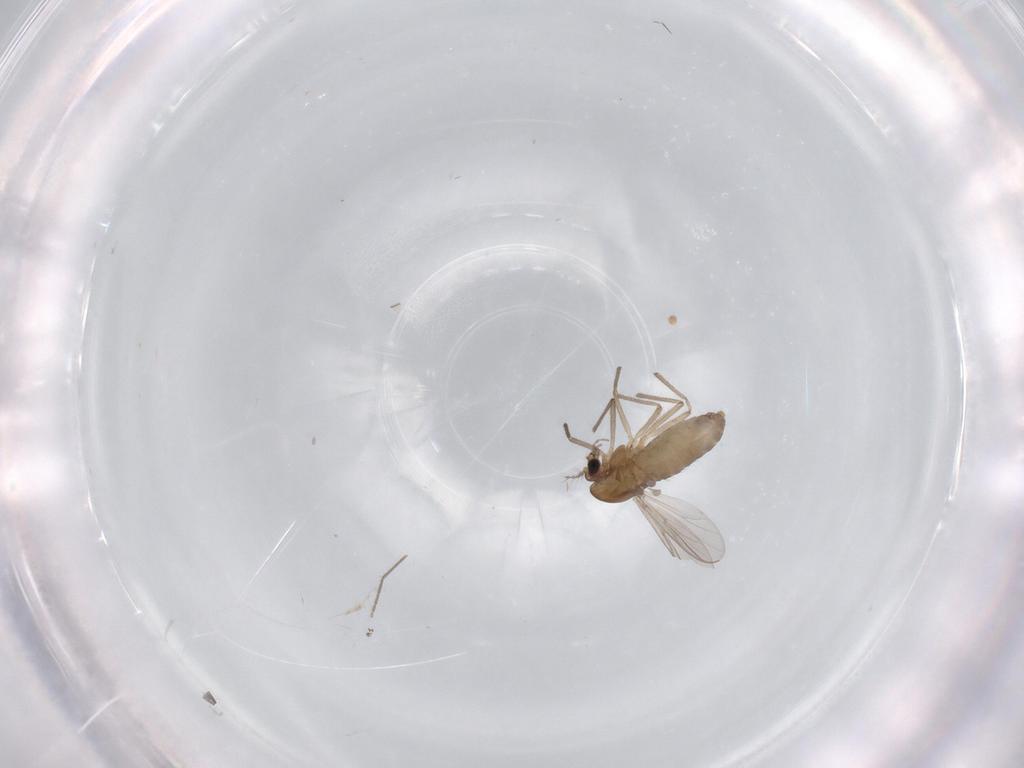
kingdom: Animalia
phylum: Arthropoda
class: Insecta
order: Diptera
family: Chironomidae
